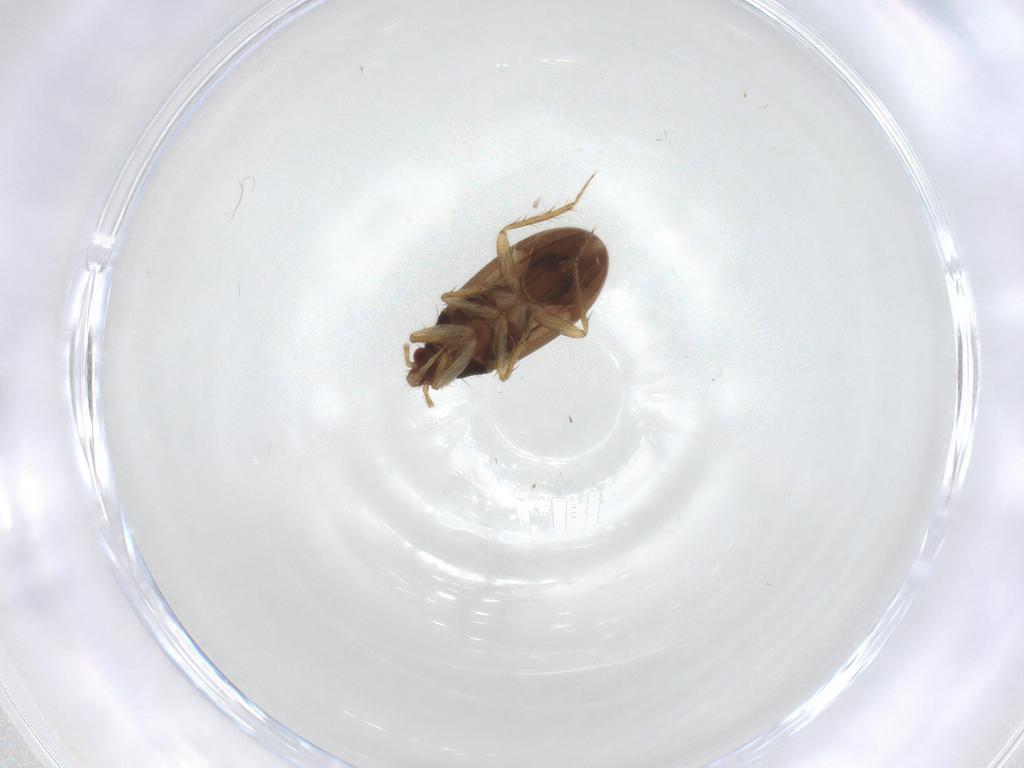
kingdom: Animalia
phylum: Arthropoda
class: Insecta
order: Hemiptera
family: Ceratocombidae
